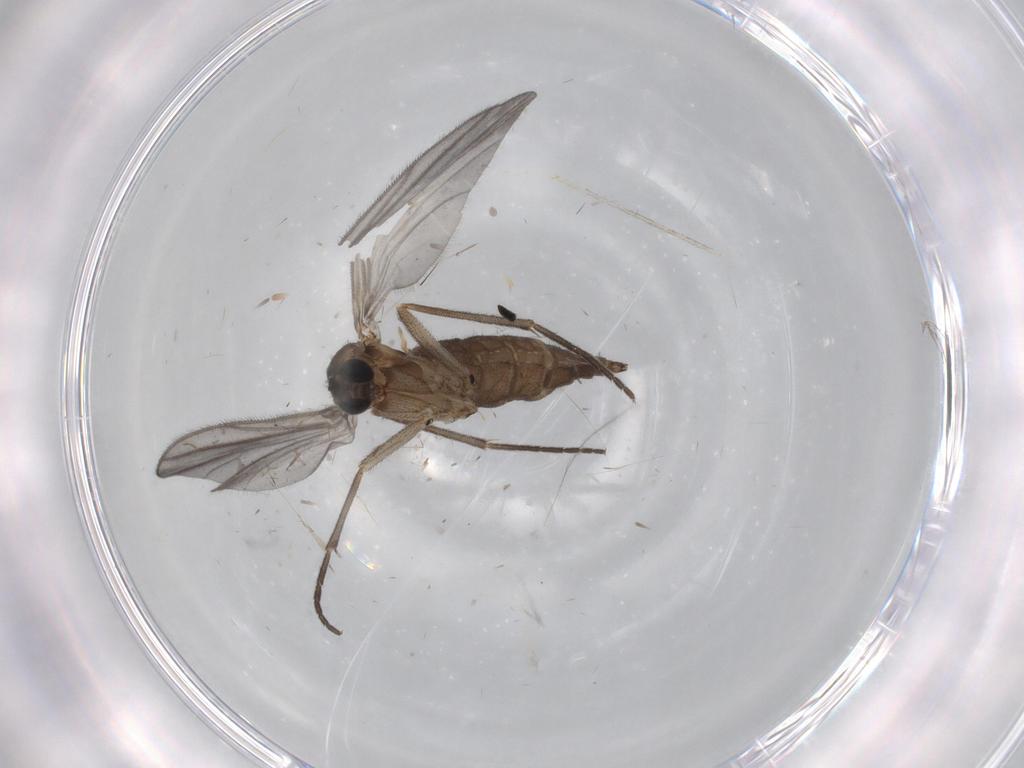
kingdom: Animalia
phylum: Arthropoda
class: Insecta
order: Diptera
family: Sciaridae
